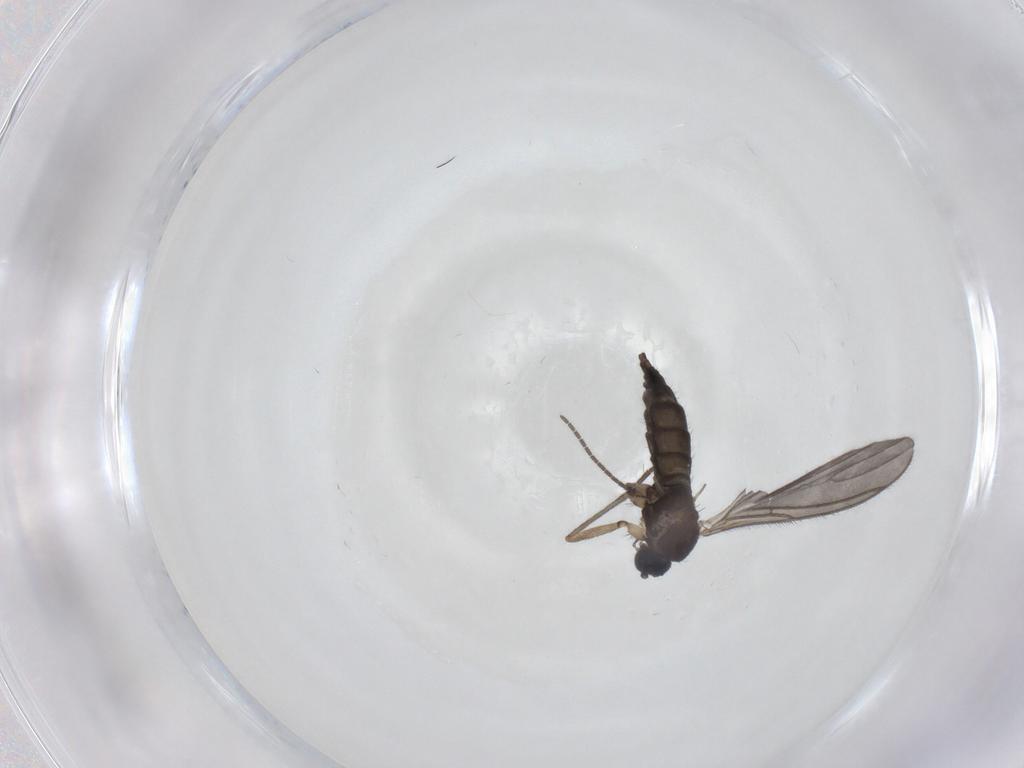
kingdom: Animalia
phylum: Arthropoda
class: Insecta
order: Diptera
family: Sciaridae
